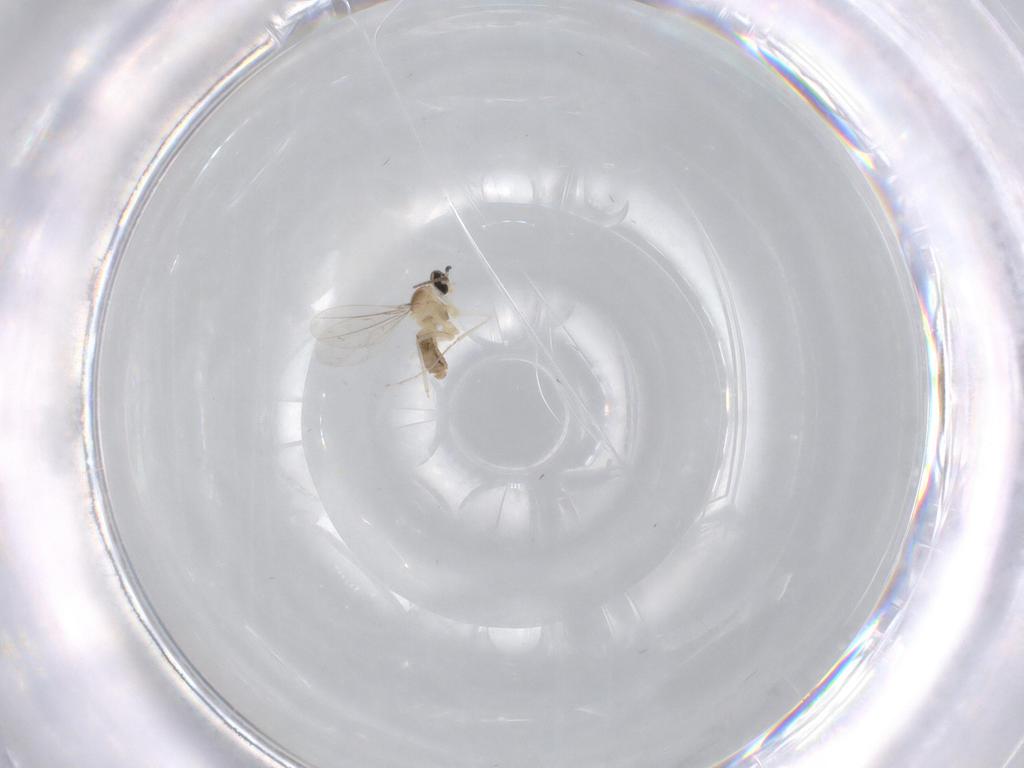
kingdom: Animalia
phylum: Arthropoda
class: Insecta
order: Diptera
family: Cecidomyiidae
